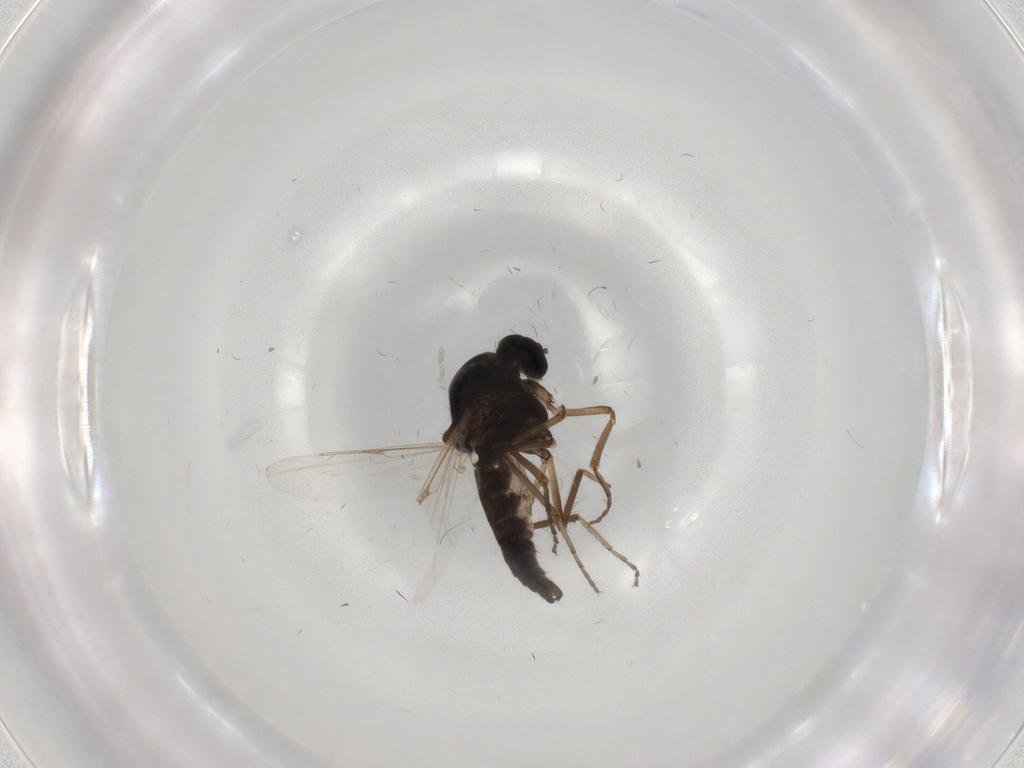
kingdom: Animalia
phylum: Arthropoda
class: Insecta
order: Diptera
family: Ceratopogonidae
